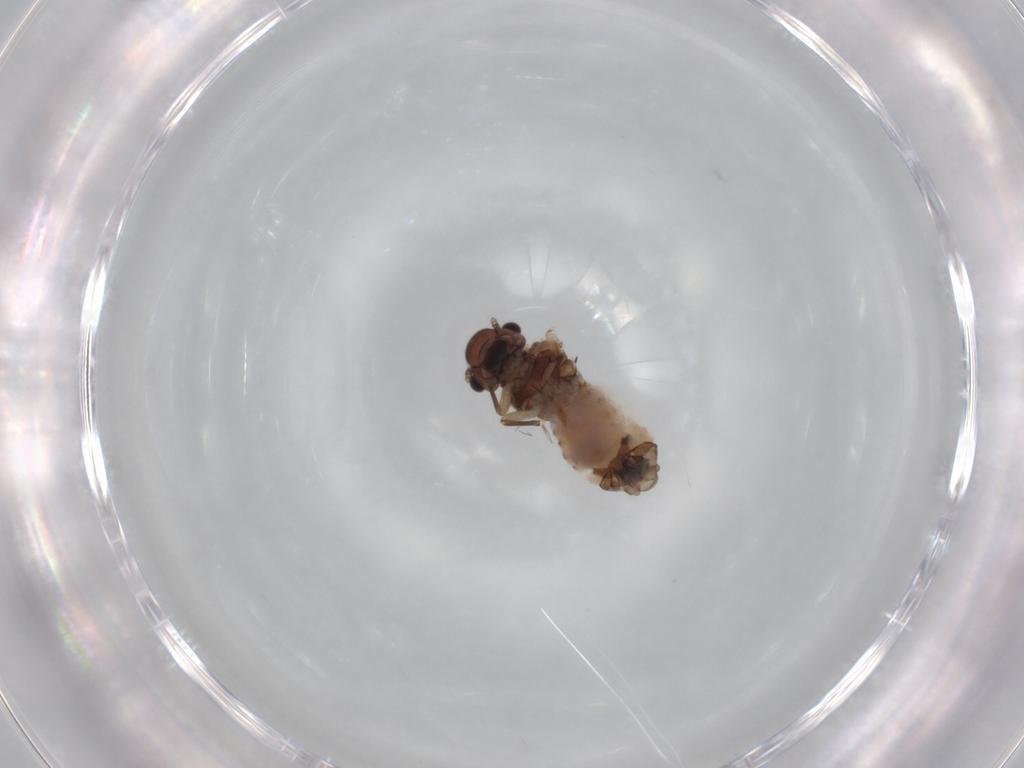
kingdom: Animalia
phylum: Arthropoda
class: Insecta
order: Psocodea
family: Peripsocidae
